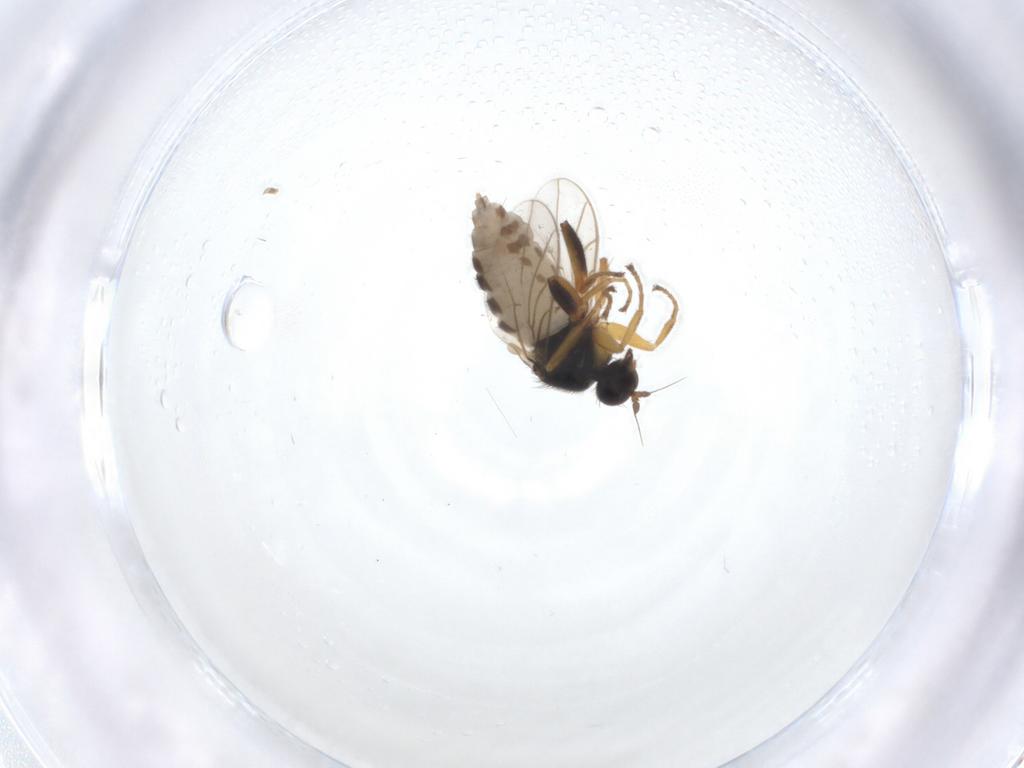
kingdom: Animalia
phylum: Arthropoda
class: Insecta
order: Diptera
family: Hybotidae
